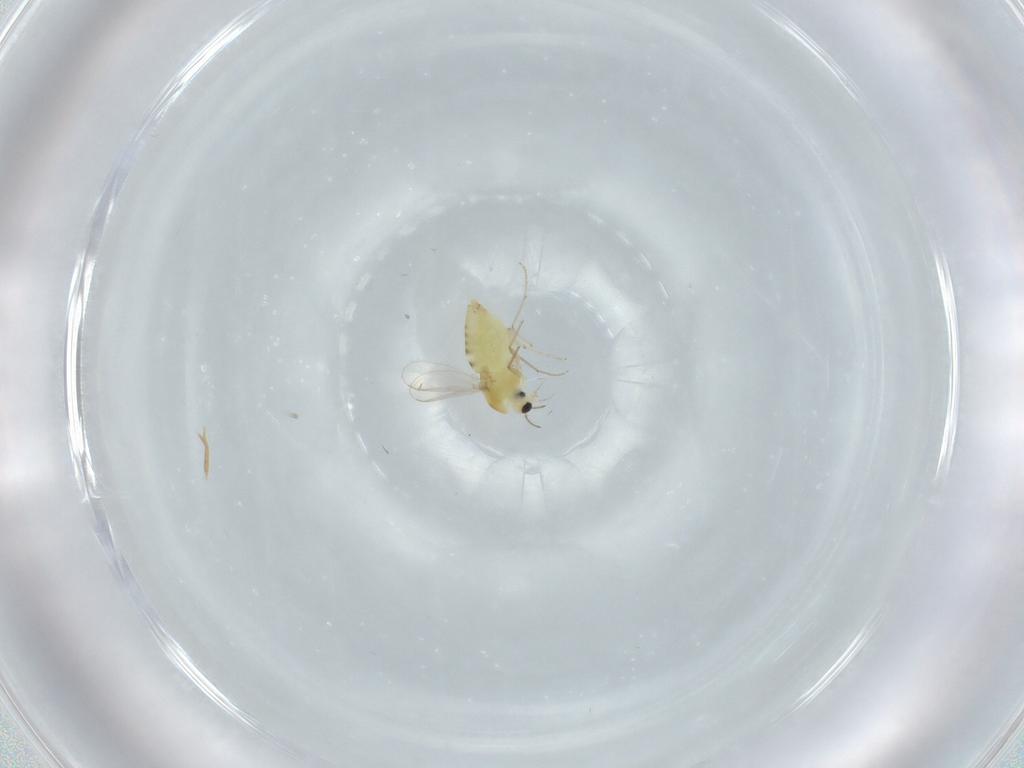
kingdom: Animalia
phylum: Arthropoda
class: Insecta
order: Diptera
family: Chironomidae
